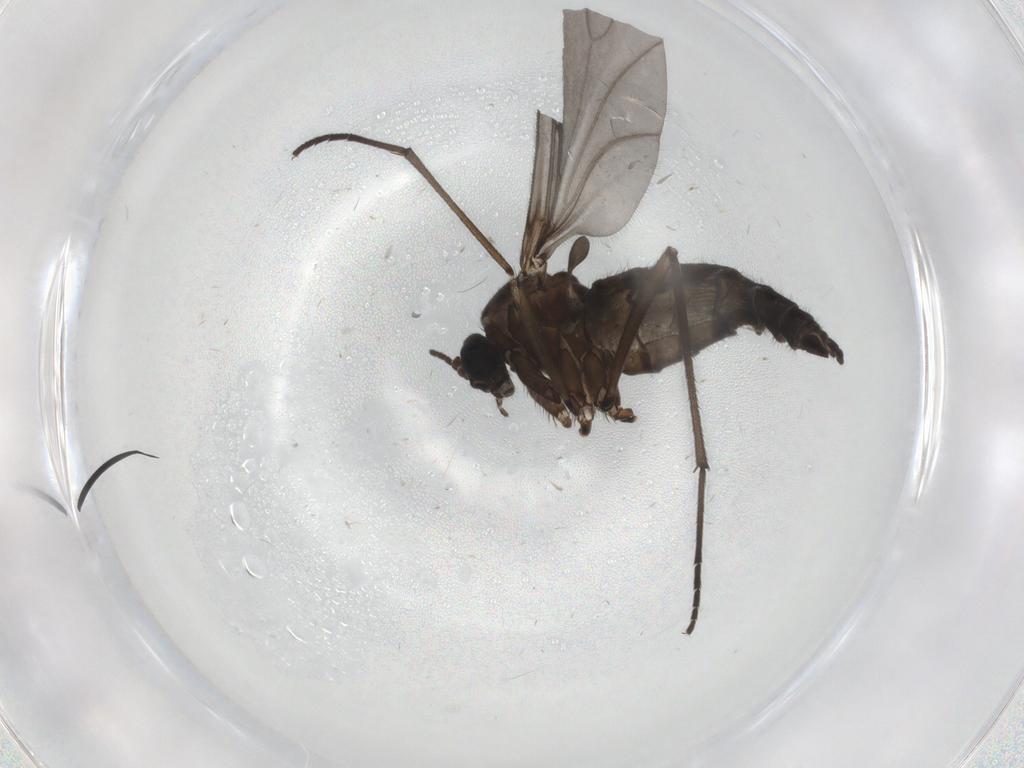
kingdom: Animalia
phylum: Arthropoda
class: Insecta
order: Diptera
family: Sciaridae
